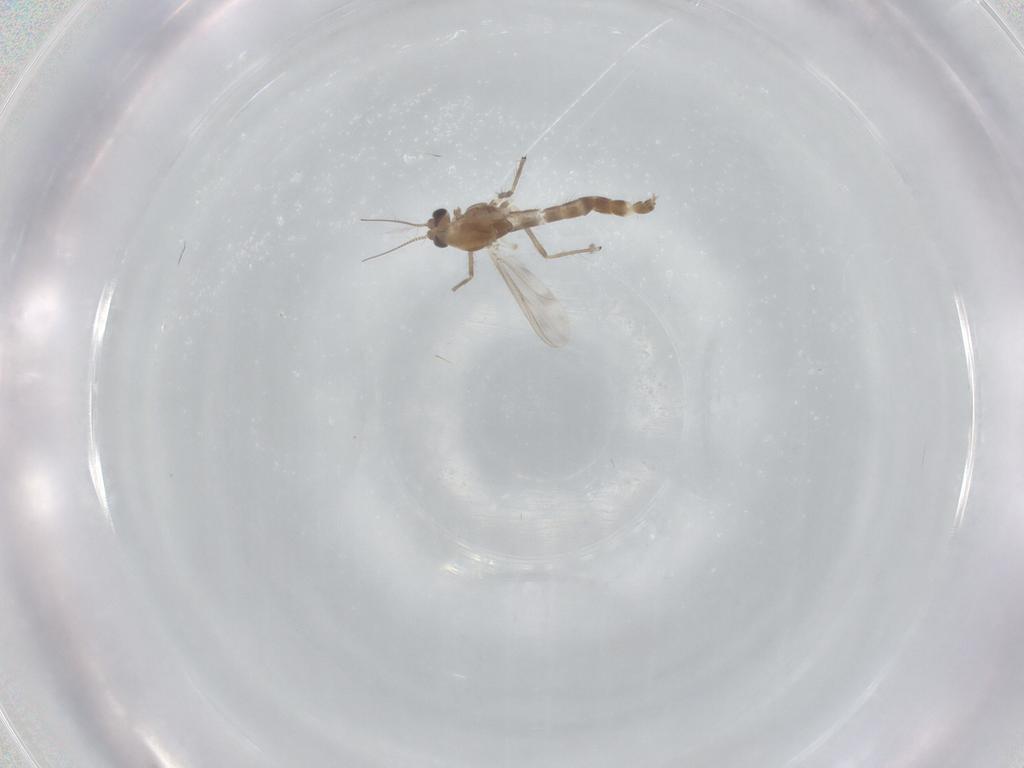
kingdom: Animalia
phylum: Arthropoda
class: Insecta
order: Diptera
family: Chironomidae
